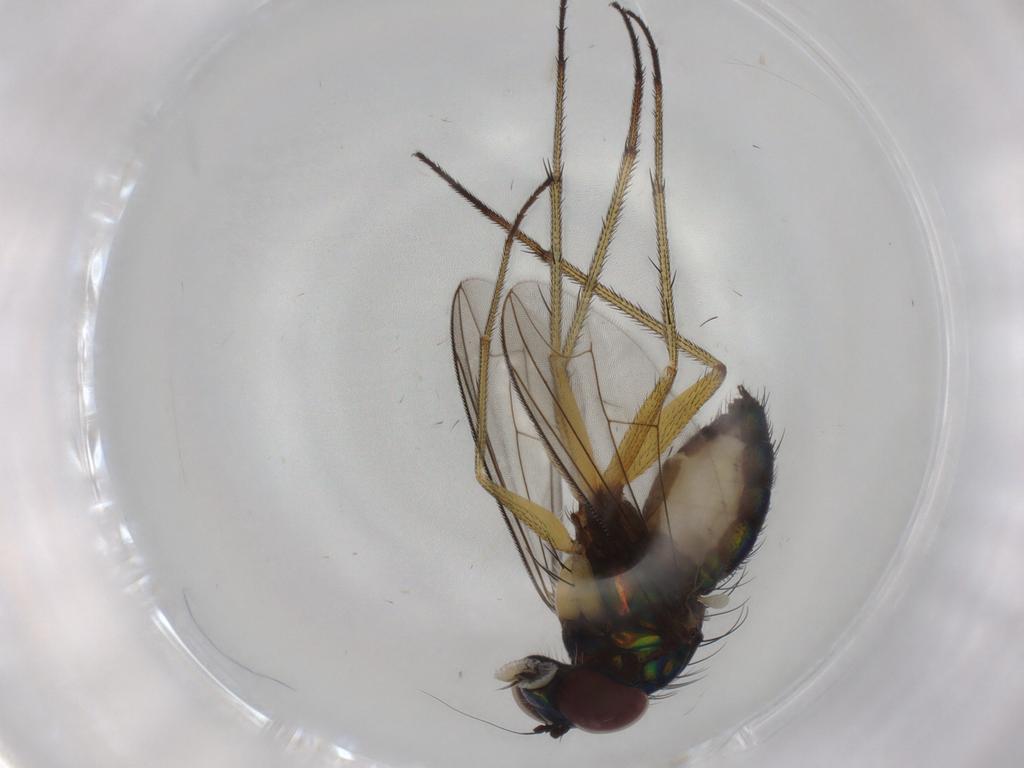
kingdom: Animalia
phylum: Arthropoda
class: Insecta
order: Diptera
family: Dolichopodidae
